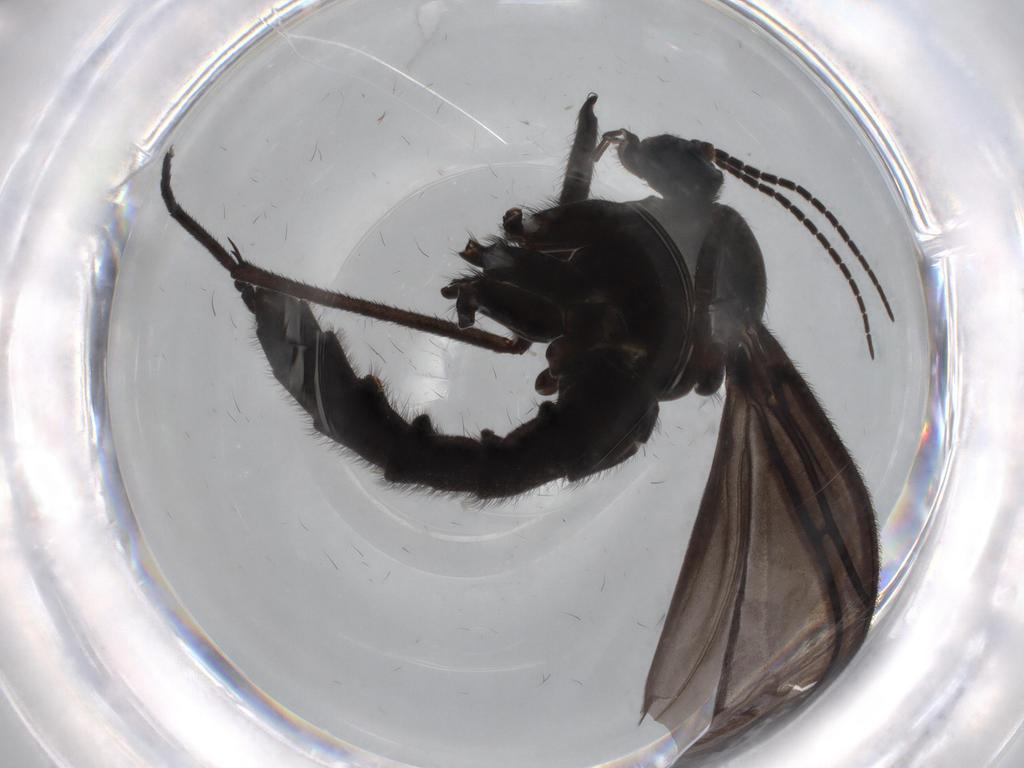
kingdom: Animalia
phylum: Arthropoda
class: Insecta
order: Diptera
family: Sciaridae
